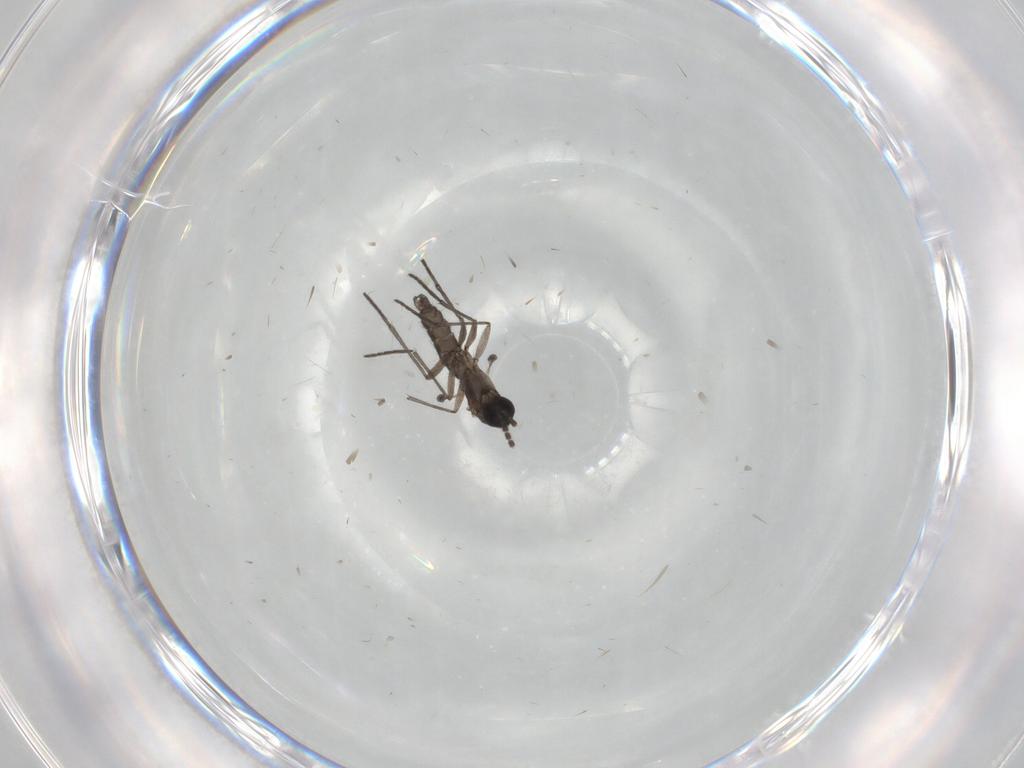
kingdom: Animalia
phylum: Arthropoda
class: Insecta
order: Diptera
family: Sciaridae
